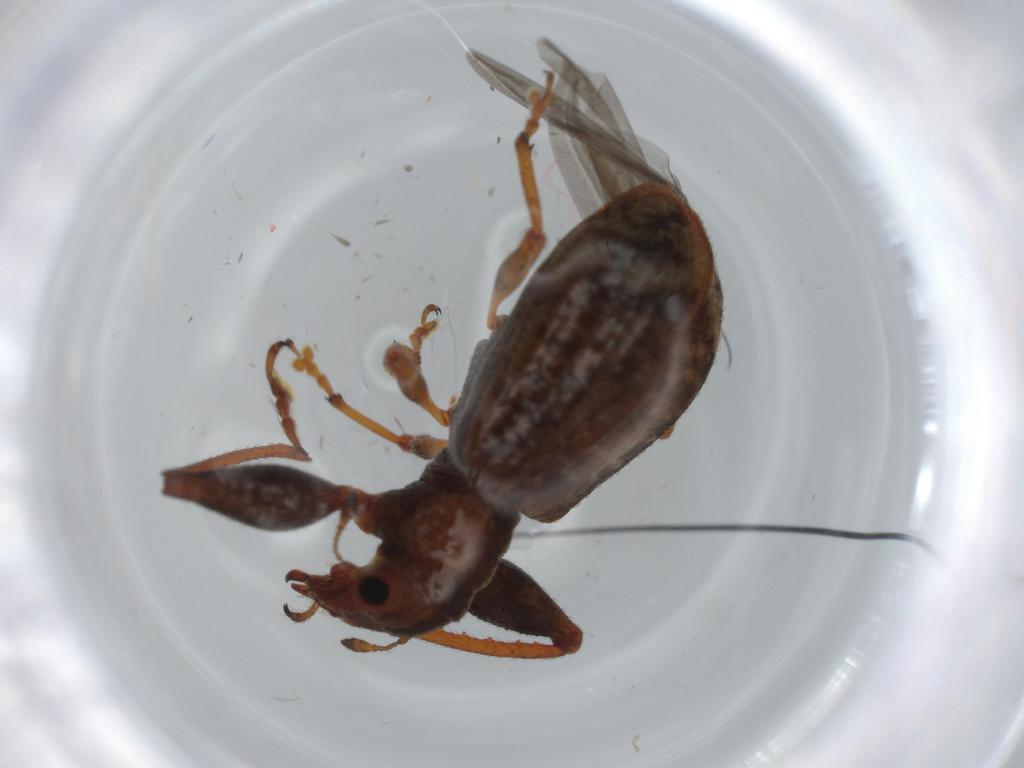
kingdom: Animalia
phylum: Arthropoda
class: Insecta
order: Coleoptera
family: Curculionidae
